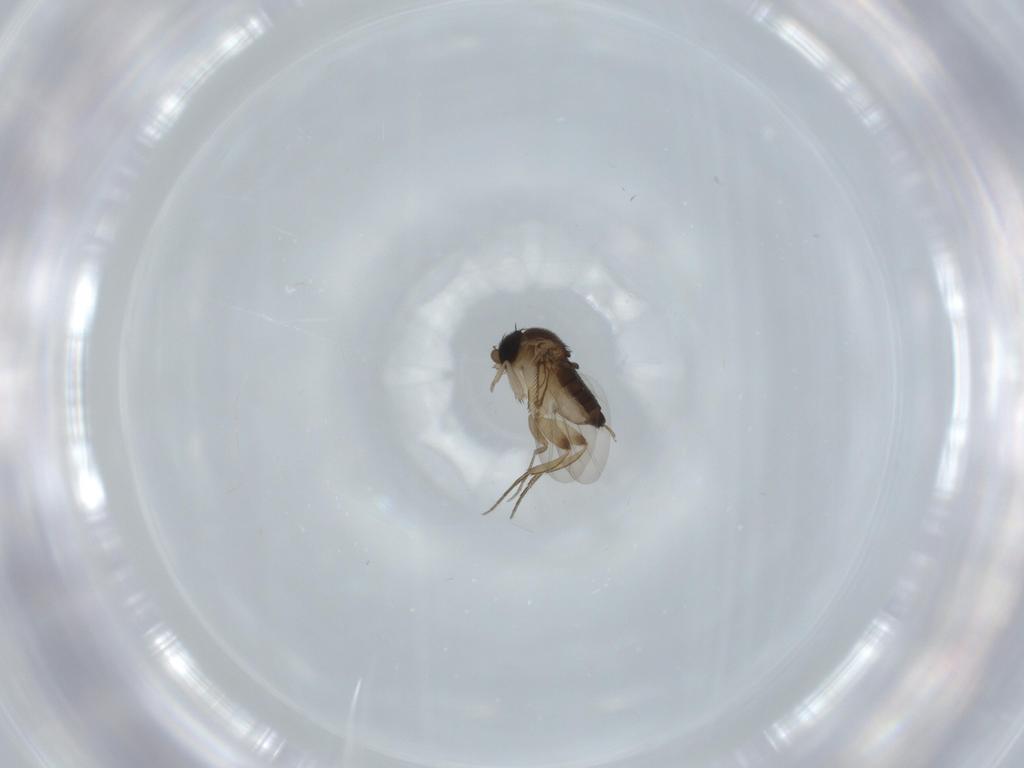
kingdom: Animalia
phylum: Arthropoda
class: Insecta
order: Diptera
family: Phoridae
